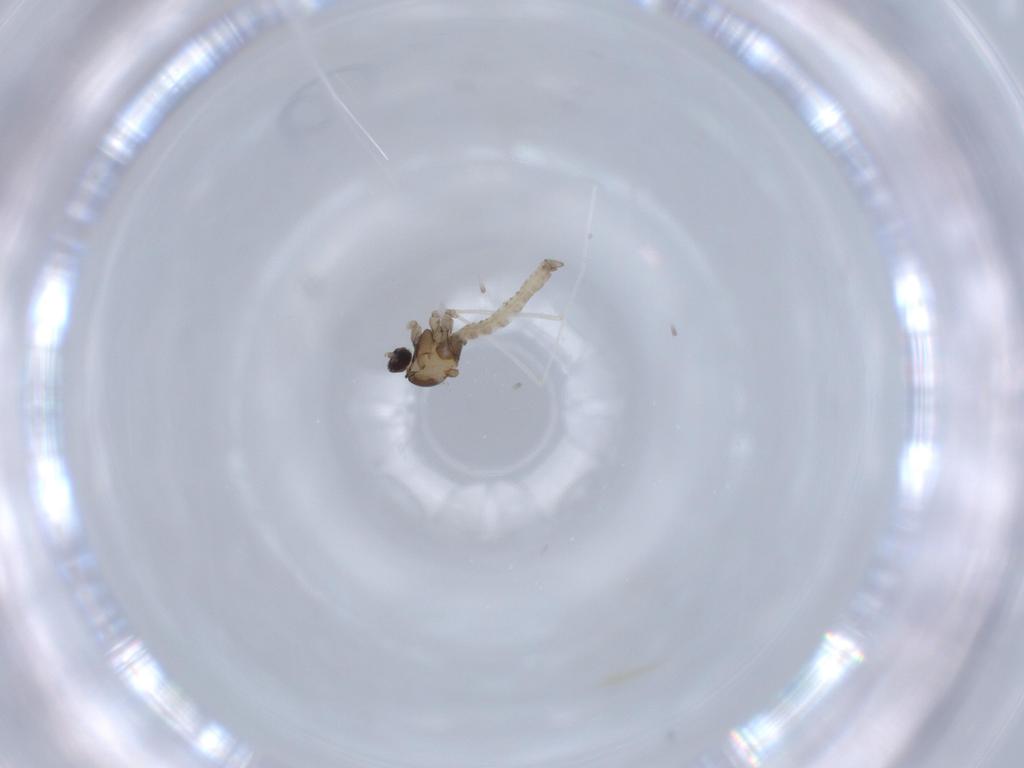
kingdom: Animalia
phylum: Arthropoda
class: Insecta
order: Diptera
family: Cecidomyiidae
